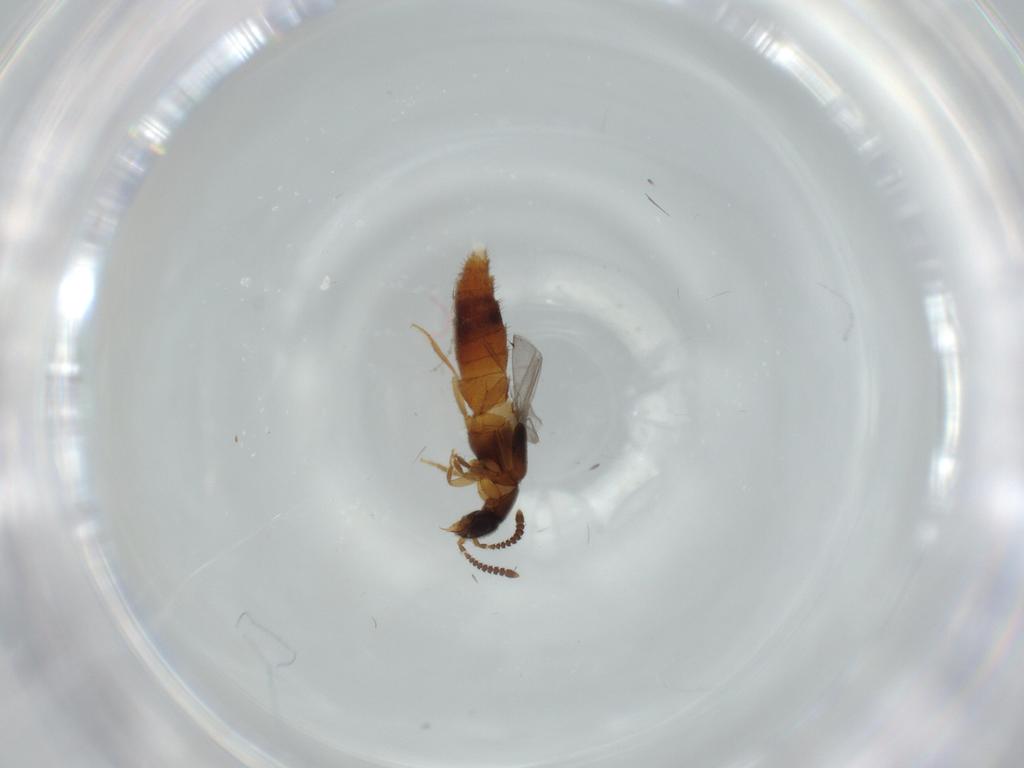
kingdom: Animalia
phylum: Arthropoda
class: Insecta
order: Coleoptera
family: Staphylinidae
